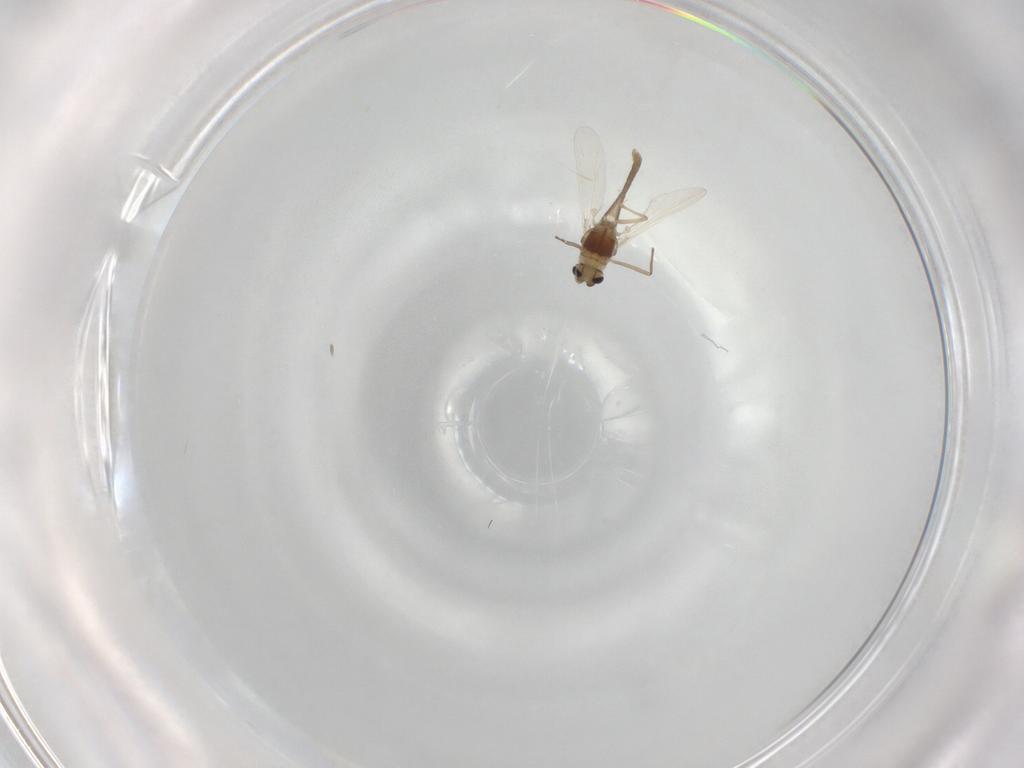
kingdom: Animalia
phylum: Arthropoda
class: Insecta
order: Diptera
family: Chironomidae
